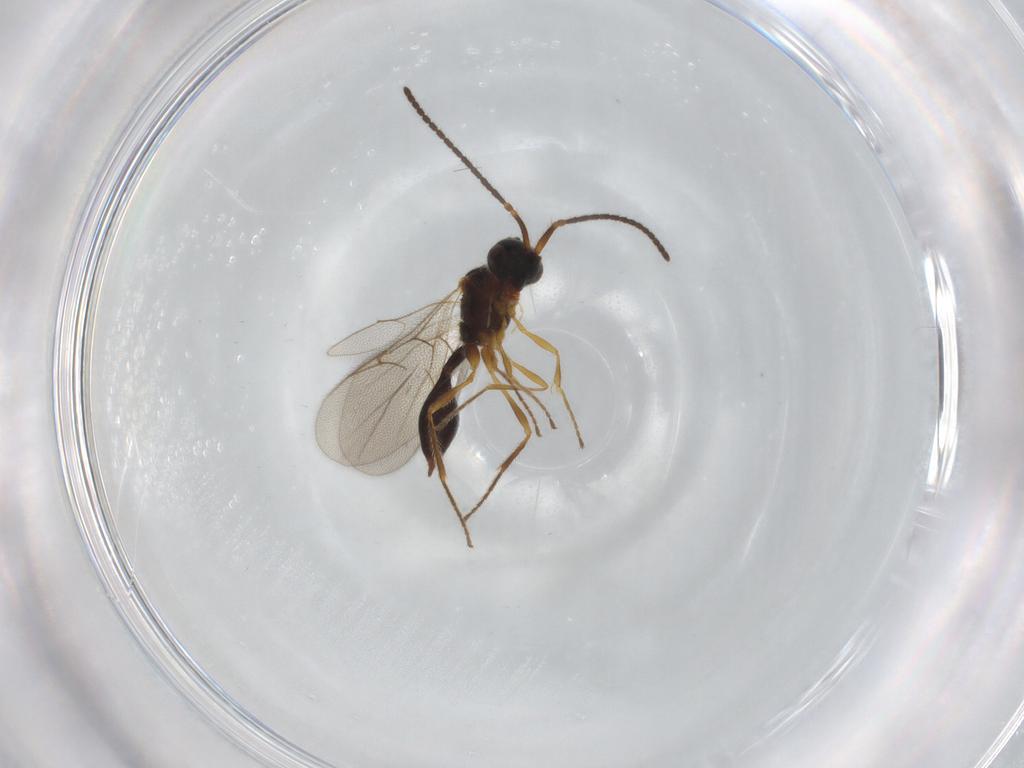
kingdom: Animalia
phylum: Arthropoda
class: Insecta
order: Hymenoptera
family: Diapriidae
